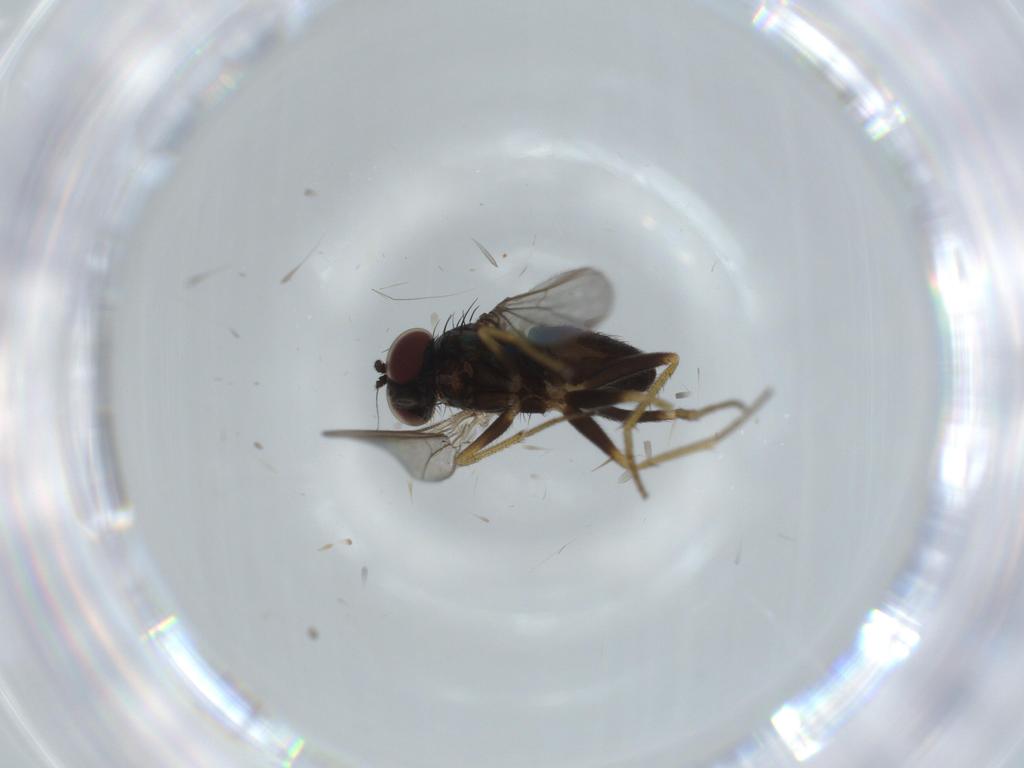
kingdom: Animalia
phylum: Arthropoda
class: Insecta
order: Diptera
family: Dolichopodidae
